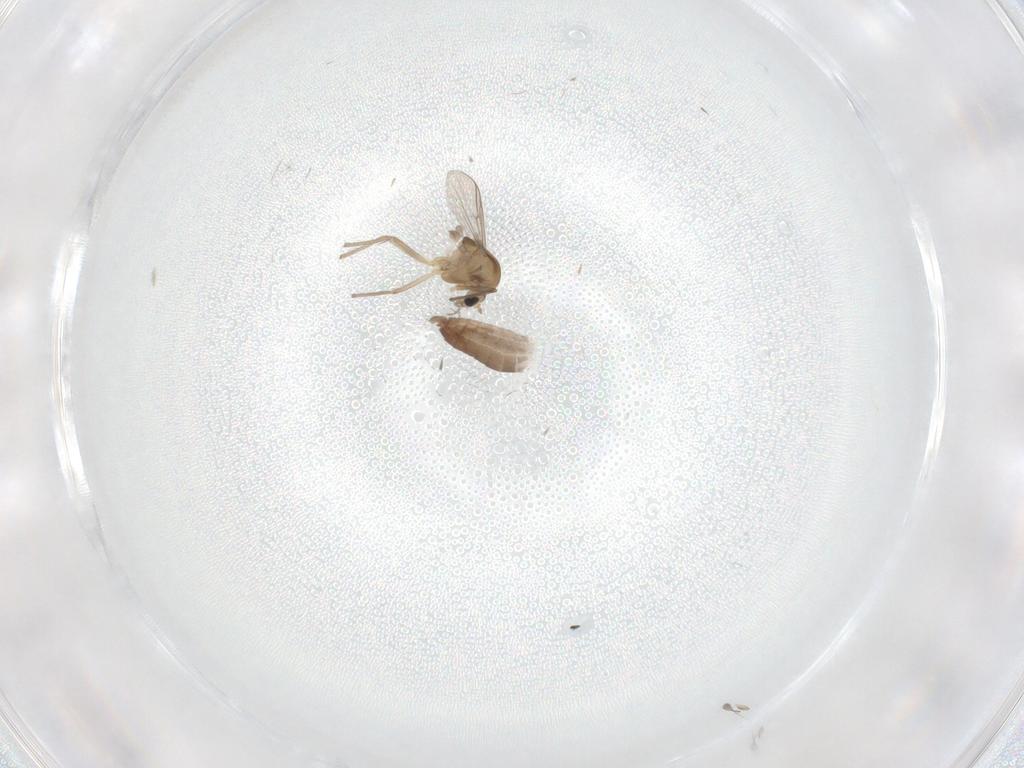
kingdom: Animalia
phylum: Arthropoda
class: Insecta
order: Diptera
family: Chironomidae
